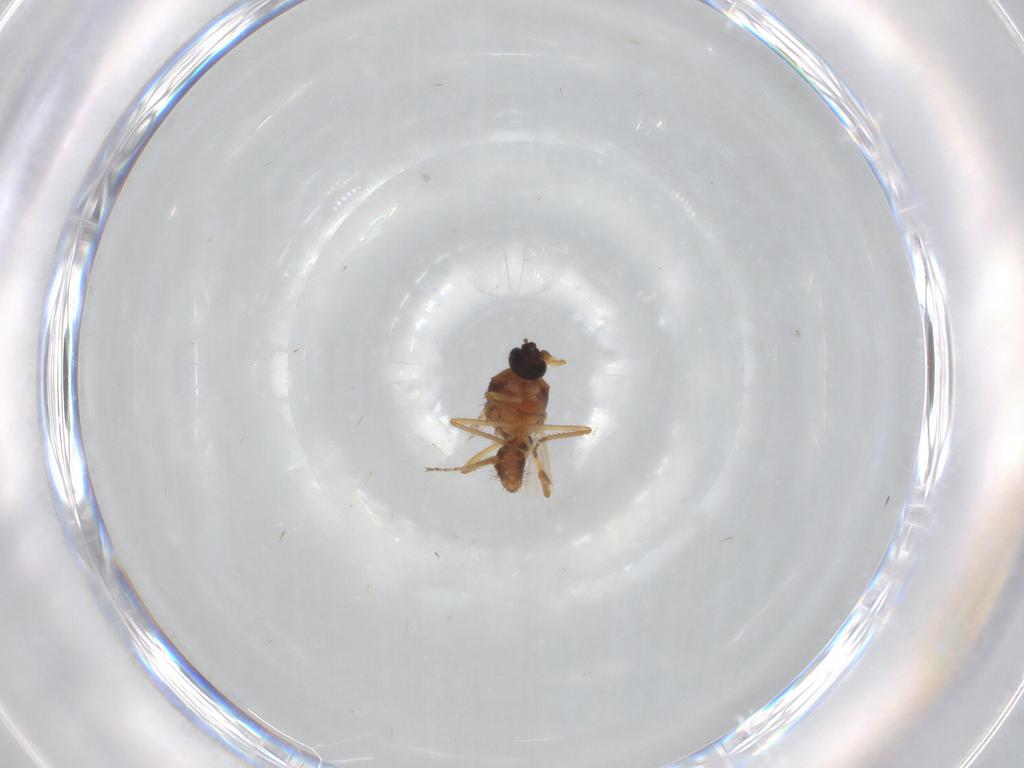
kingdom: Animalia
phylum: Arthropoda
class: Insecta
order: Diptera
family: Ceratopogonidae
